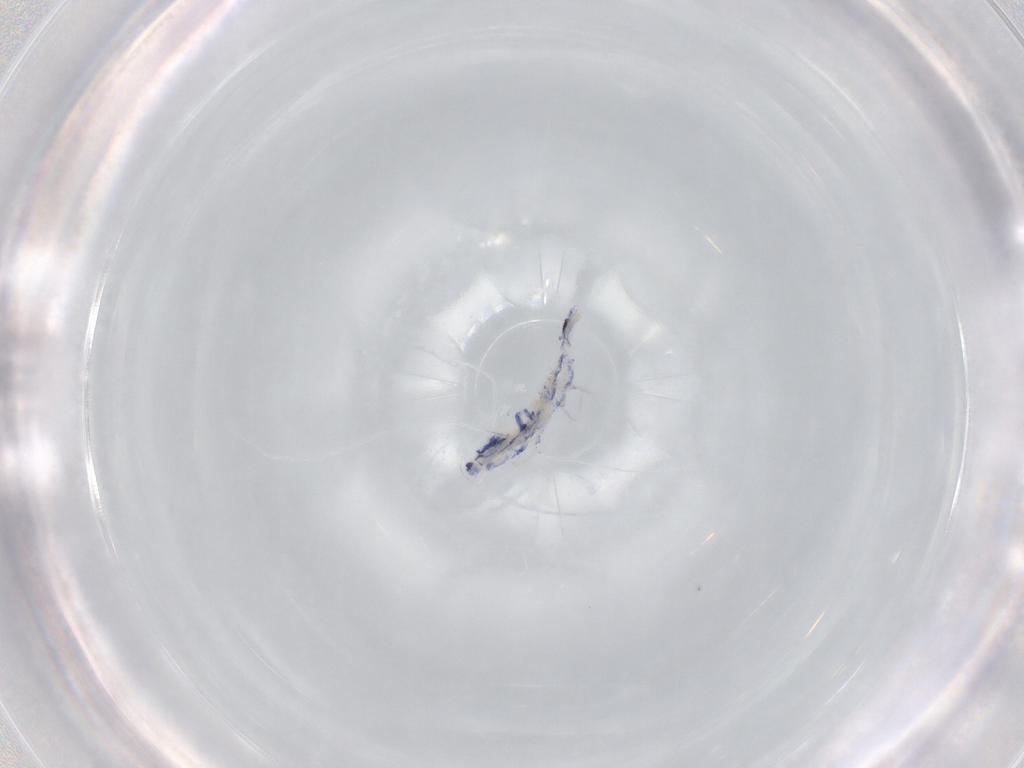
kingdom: Animalia
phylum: Arthropoda
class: Collembola
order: Entomobryomorpha
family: Entomobryidae
